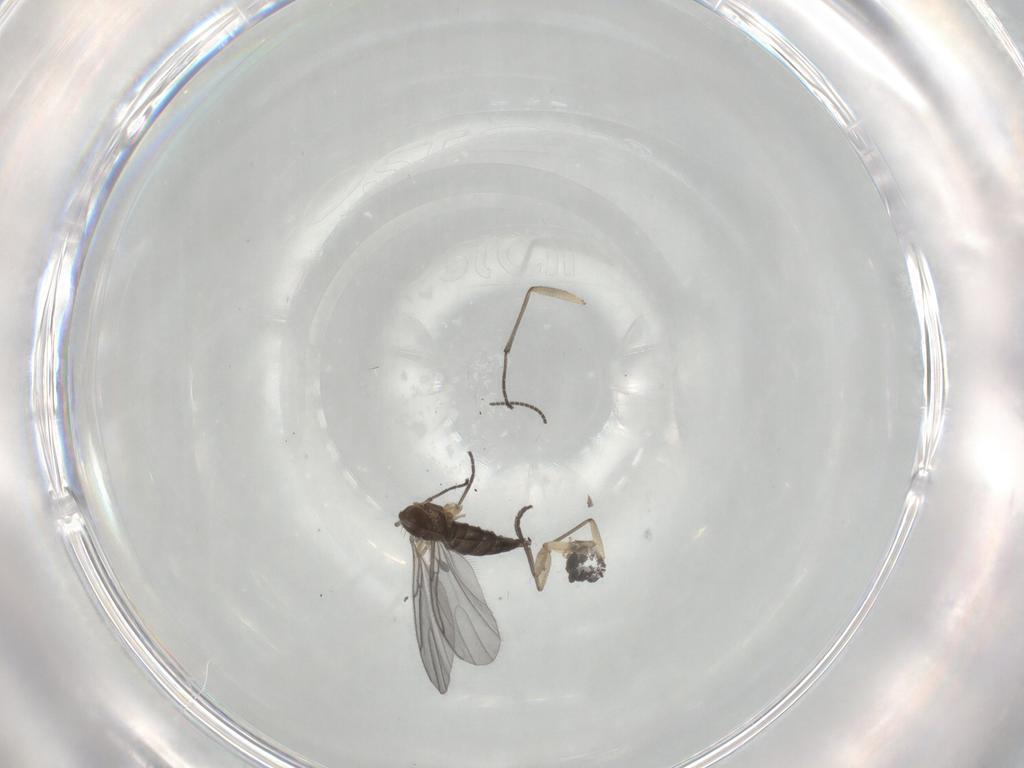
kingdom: Animalia
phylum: Arthropoda
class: Insecta
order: Diptera
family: Sciaridae
